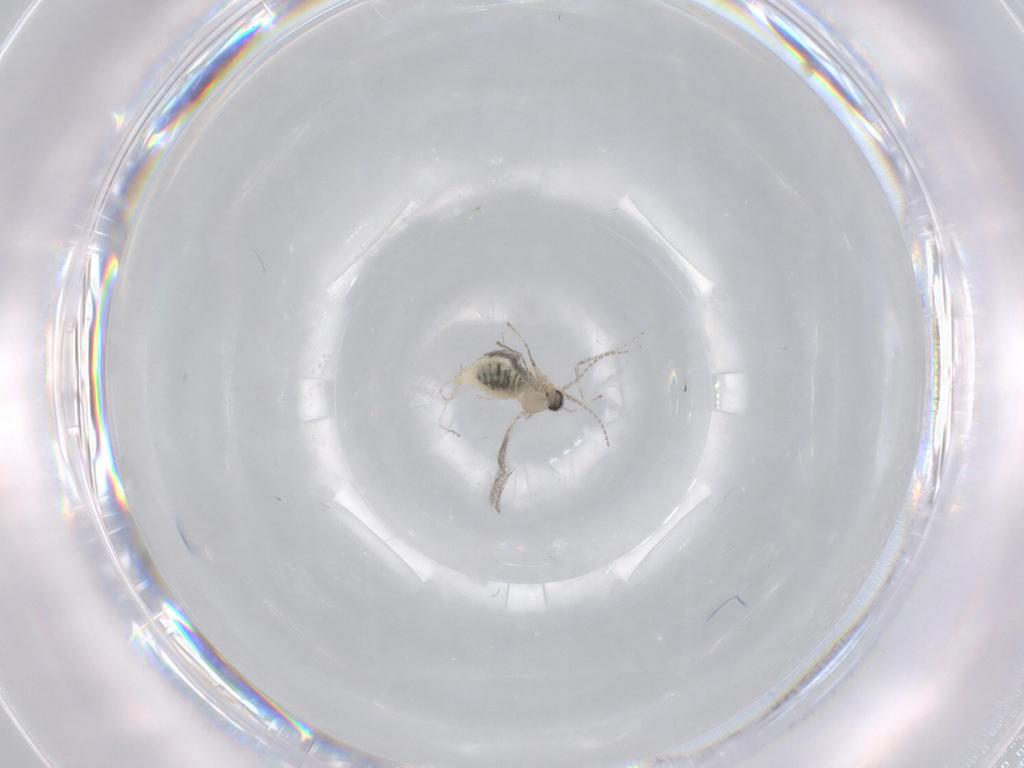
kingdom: Animalia
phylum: Arthropoda
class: Insecta
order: Diptera
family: Cecidomyiidae
